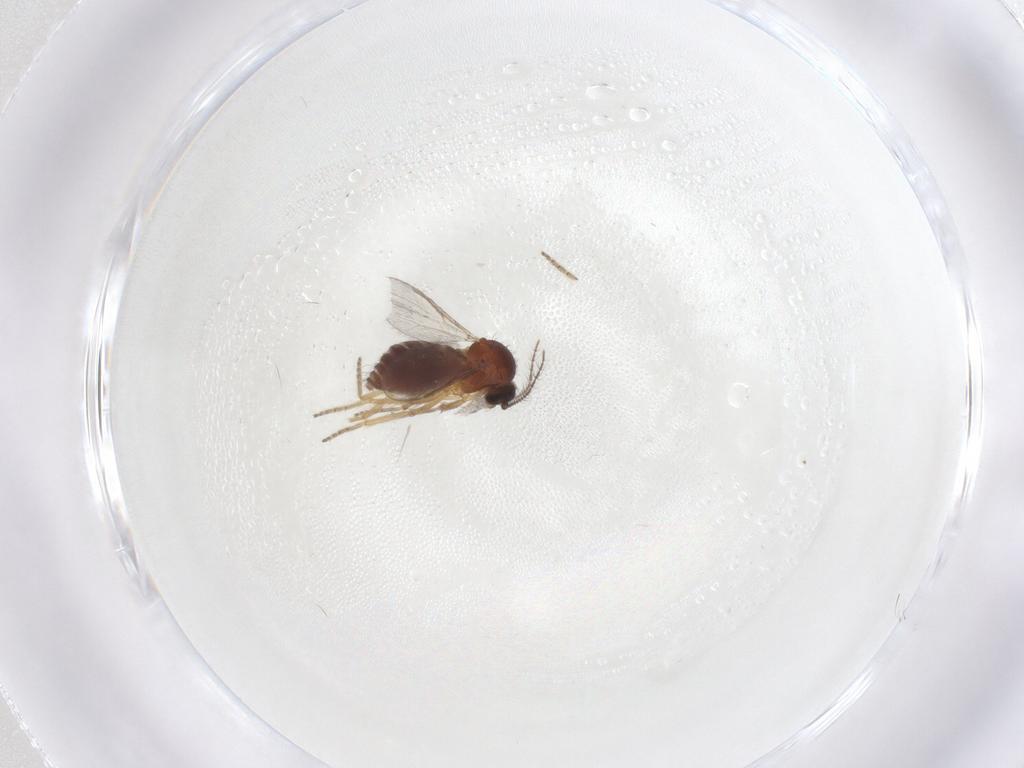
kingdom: Animalia
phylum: Arthropoda
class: Insecta
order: Diptera
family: Ceratopogonidae
